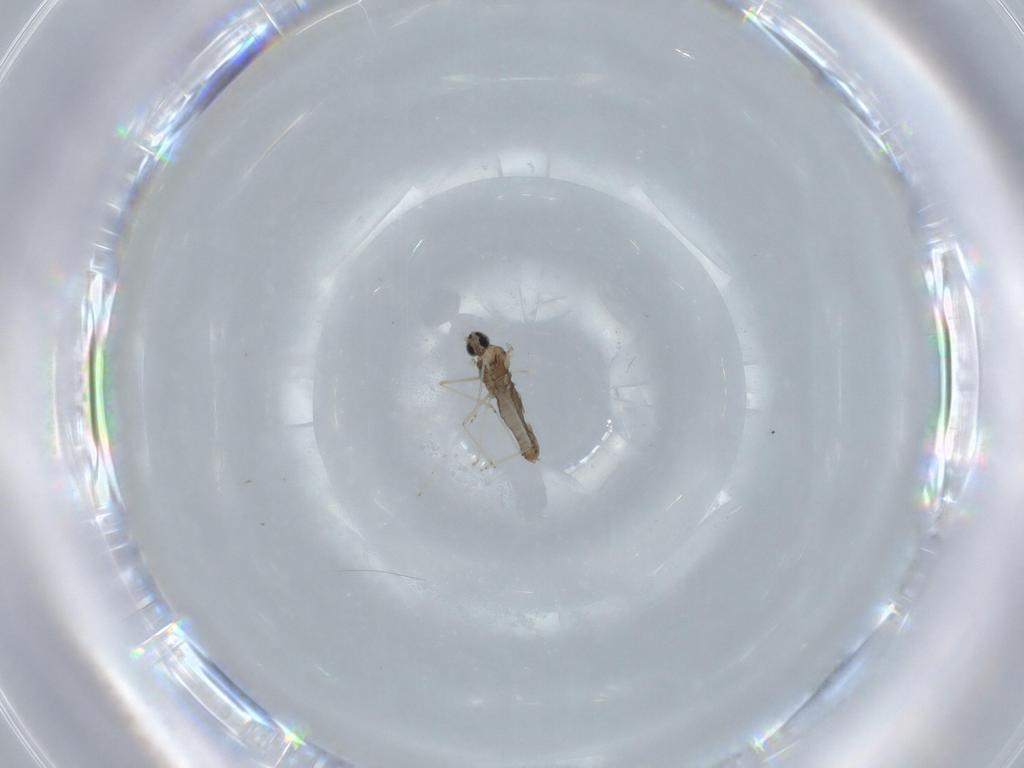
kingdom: Animalia
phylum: Arthropoda
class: Insecta
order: Diptera
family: Cecidomyiidae
